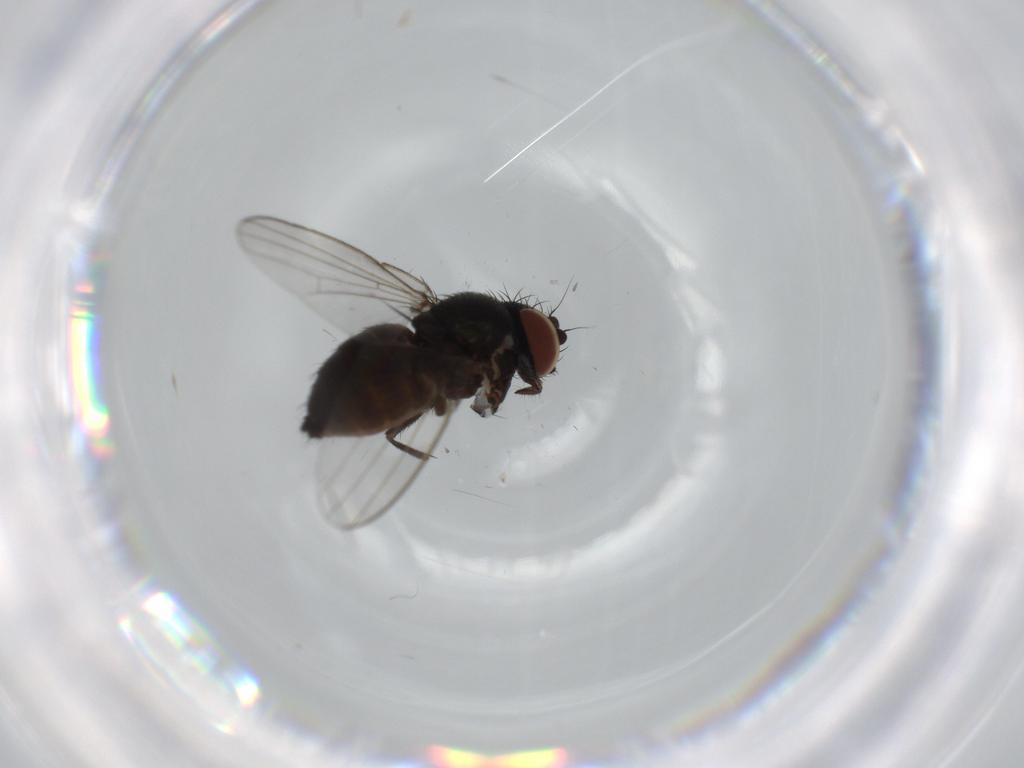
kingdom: Animalia
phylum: Arthropoda
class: Insecta
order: Diptera
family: Milichiidae
